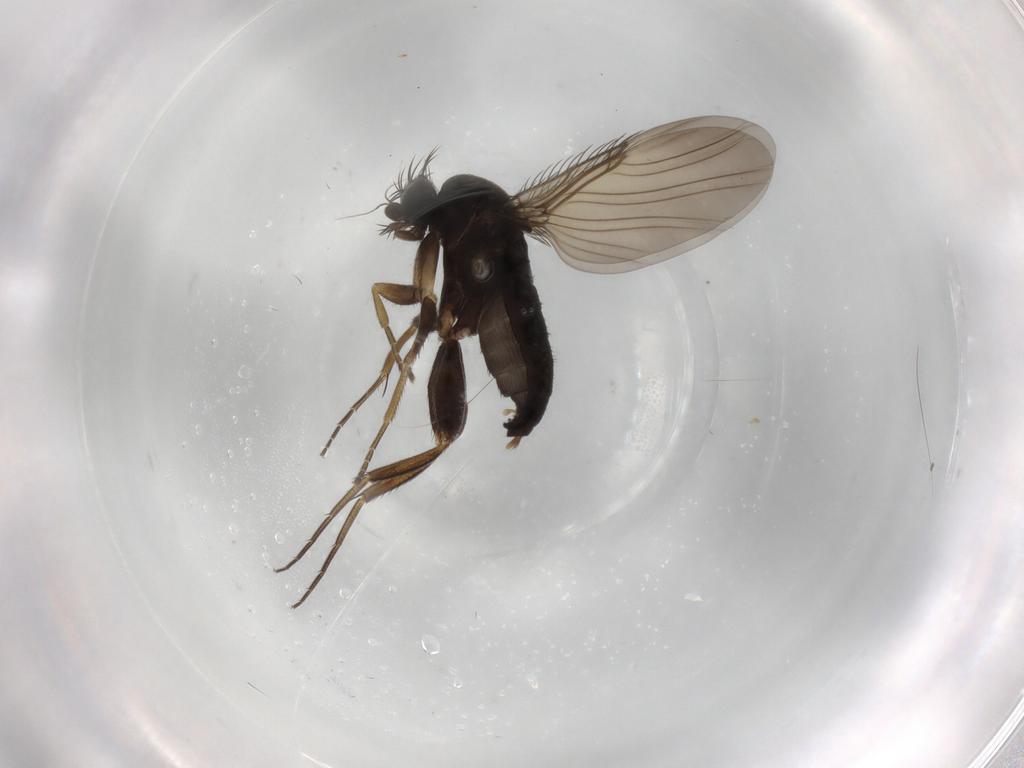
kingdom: Animalia
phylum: Arthropoda
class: Insecta
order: Diptera
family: Phoridae
